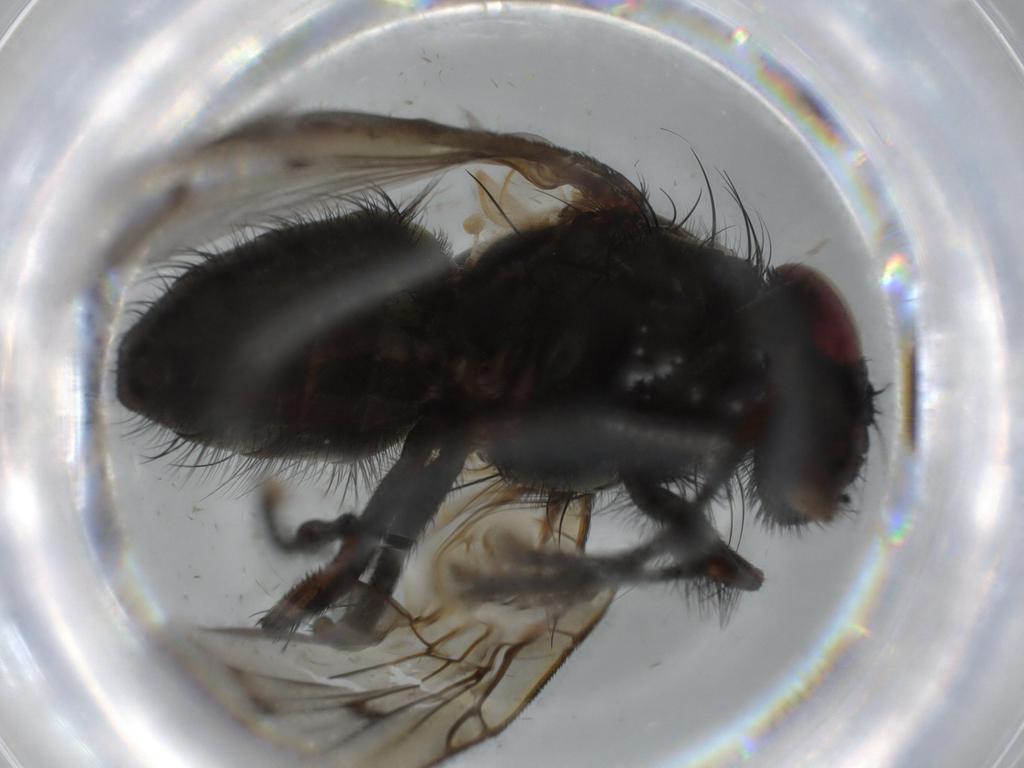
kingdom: Animalia
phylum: Arthropoda
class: Insecta
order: Diptera
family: Muscidae
